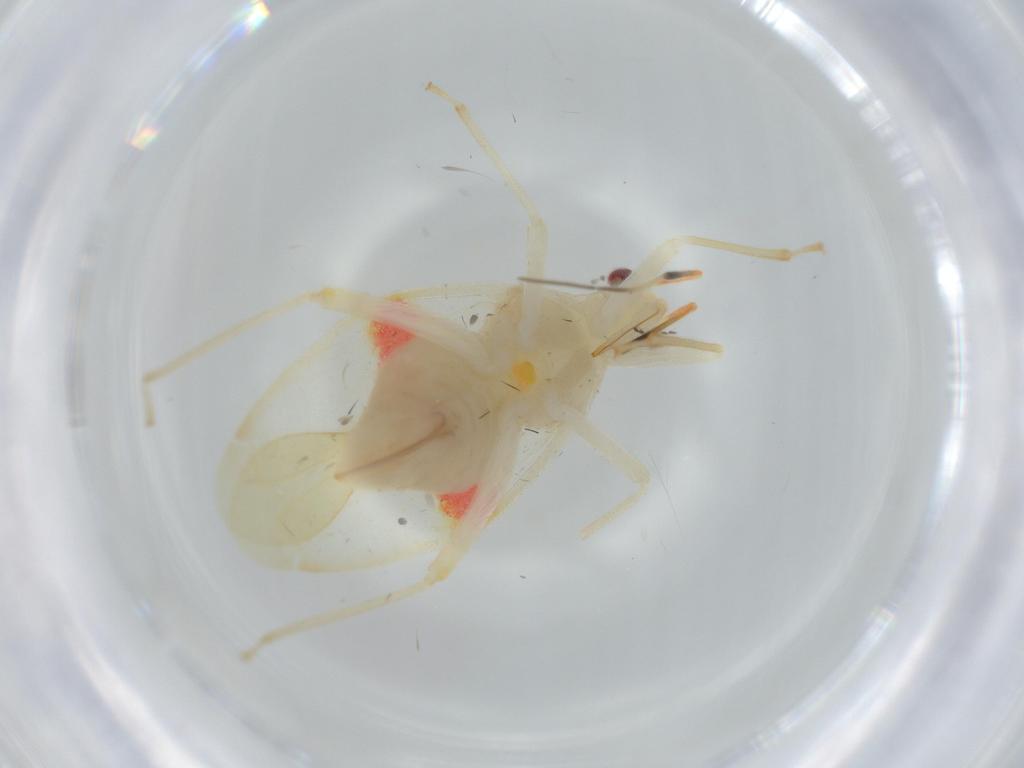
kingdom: Animalia
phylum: Arthropoda
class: Insecta
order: Hemiptera
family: Miridae
